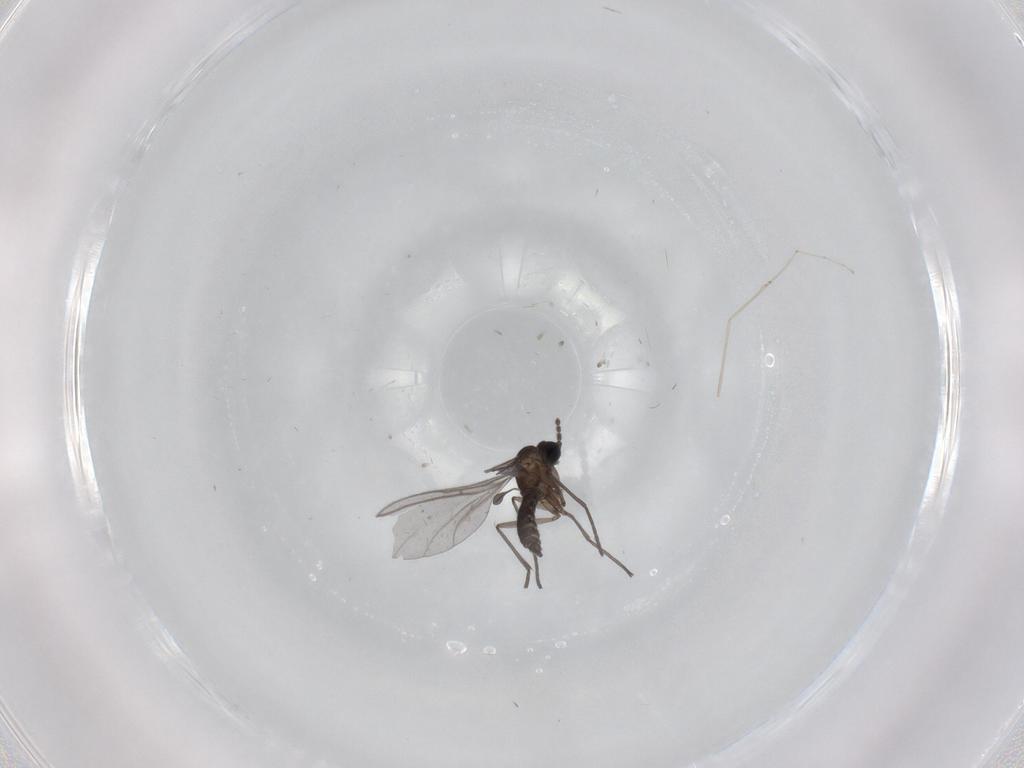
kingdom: Animalia
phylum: Arthropoda
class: Insecta
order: Diptera
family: Cecidomyiidae
